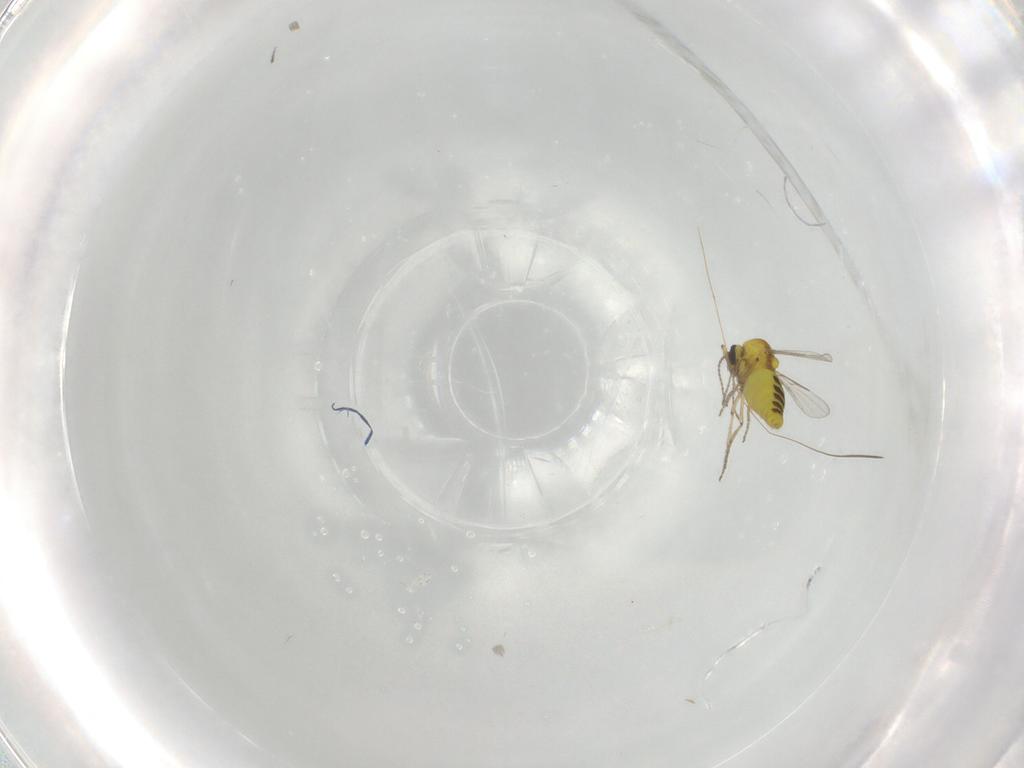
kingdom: Animalia
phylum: Arthropoda
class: Insecta
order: Diptera
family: Ceratopogonidae
